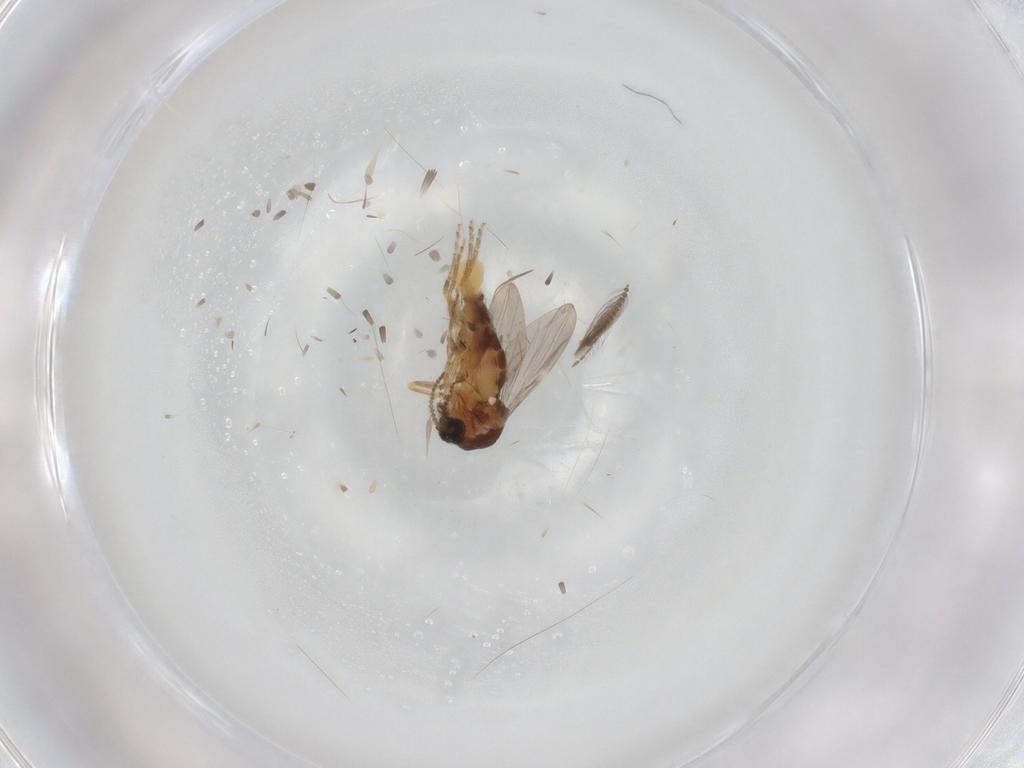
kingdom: Animalia
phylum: Arthropoda
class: Insecta
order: Diptera
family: Ceratopogonidae
